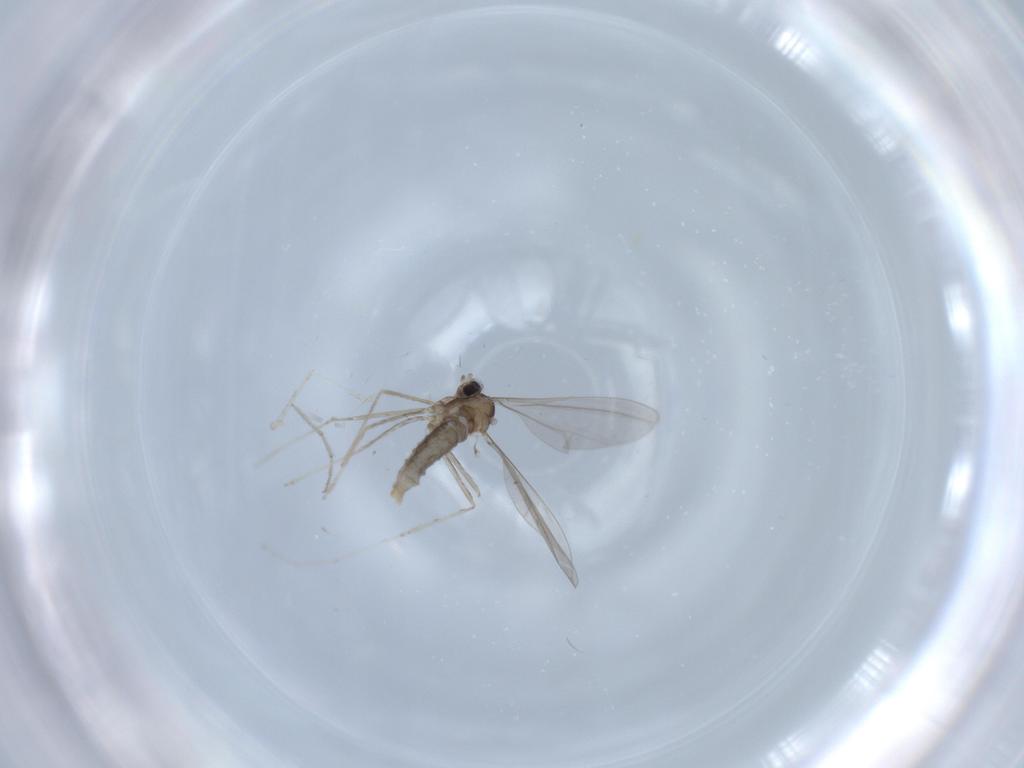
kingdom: Animalia
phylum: Arthropoda
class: Insecta
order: Diptera
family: Cecidomyiidae
